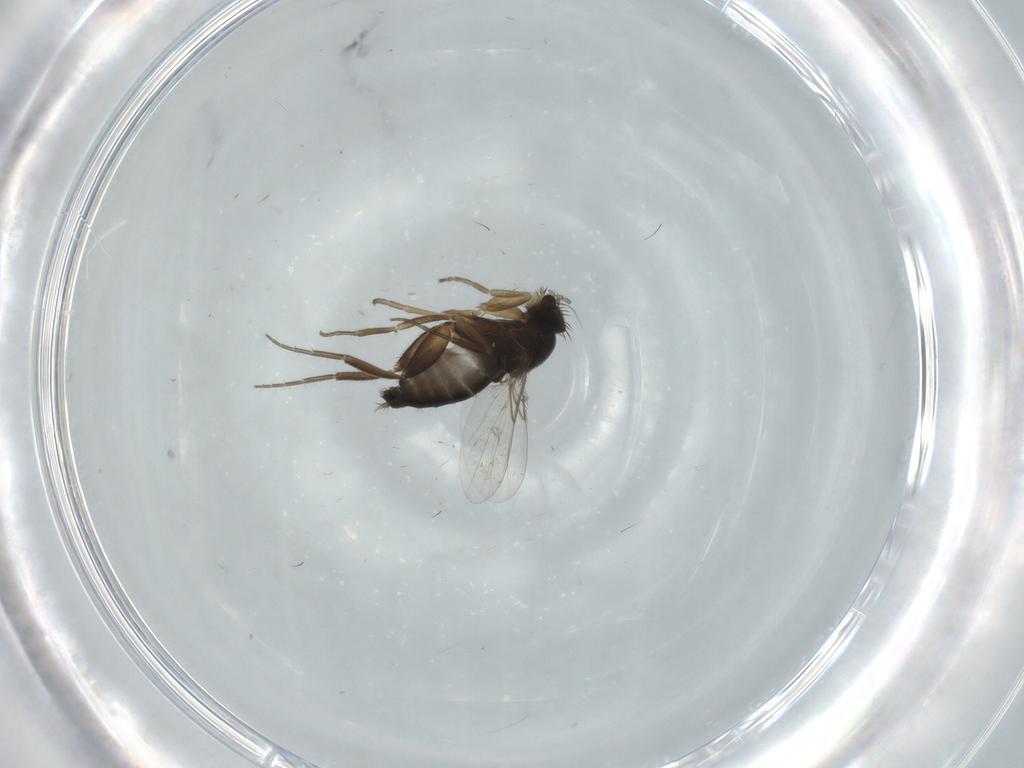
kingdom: Animalia
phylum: Arthropoda
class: Insecta
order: Diptera
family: Phoridae
